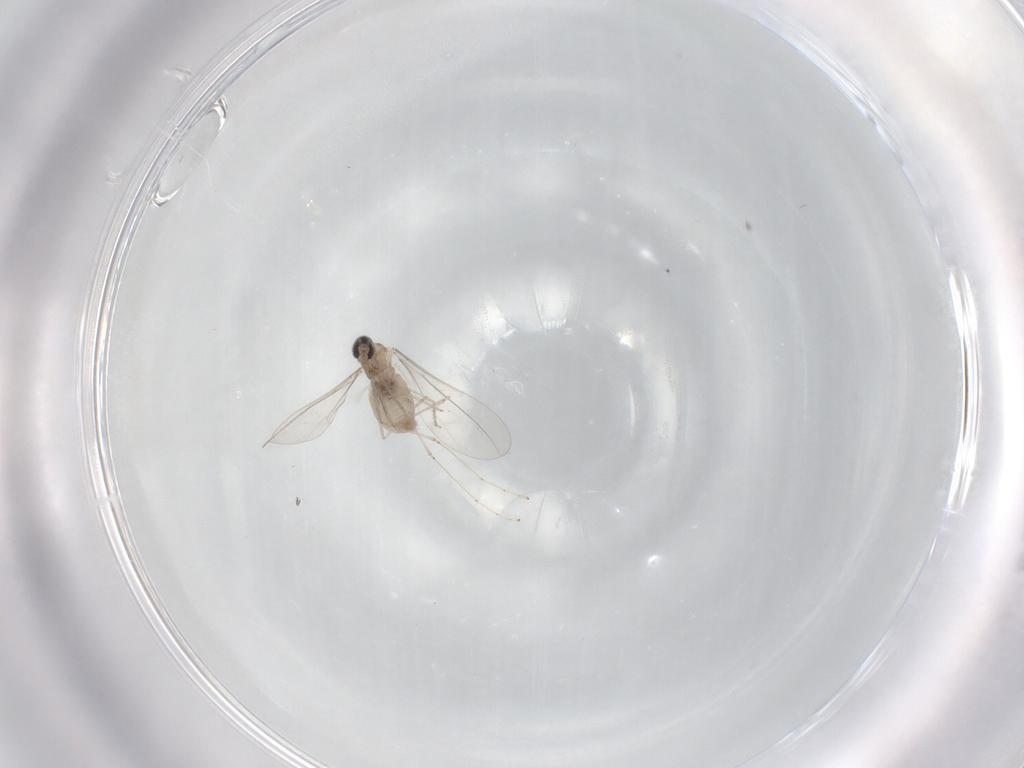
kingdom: Animalia
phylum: Arthropoda
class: Insecta
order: Diptera
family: Cecidomyiidae
